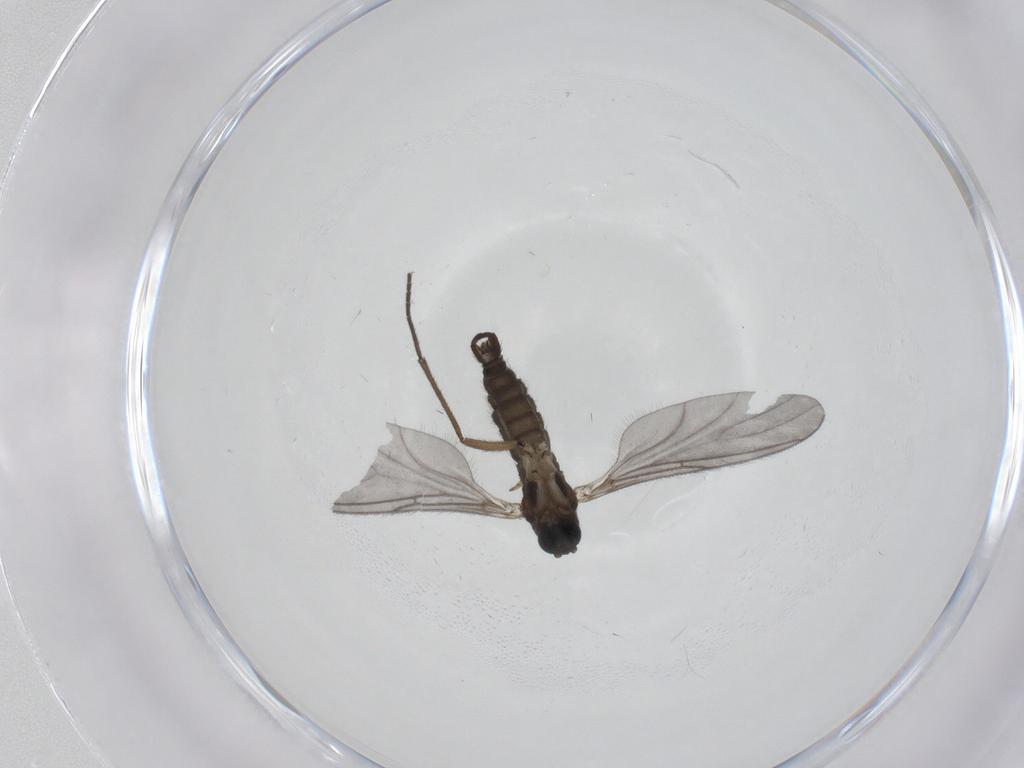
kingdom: Animalia
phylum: Arthropoda
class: Insecta
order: Diptera
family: Sciaridae
